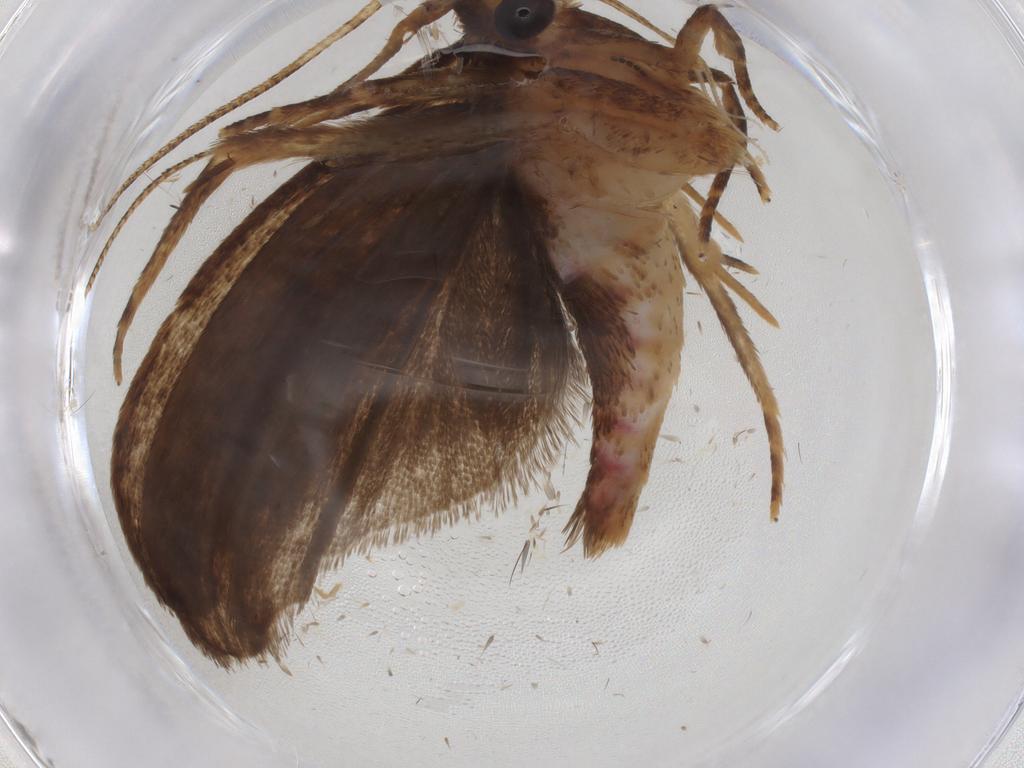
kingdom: Animalia
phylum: Arthropoda
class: Insecta
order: Lepidoptera
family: Autostichidae
